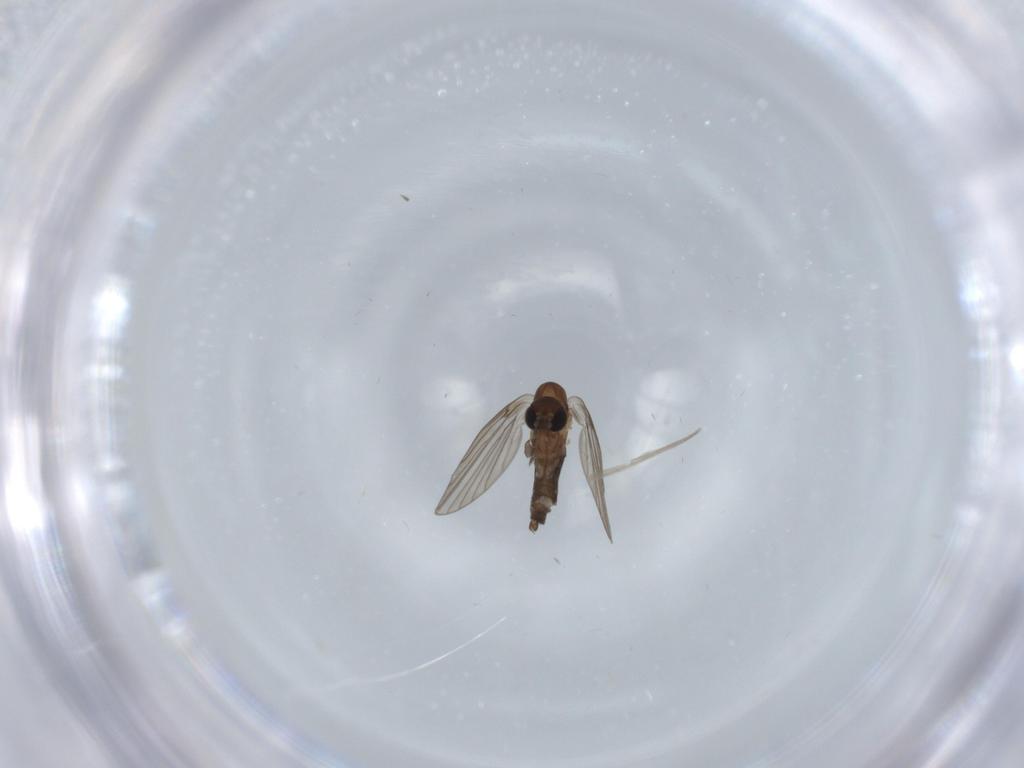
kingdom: Animalia
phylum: Arthropoda
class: Insecta
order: Diptera
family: Psychodidae
